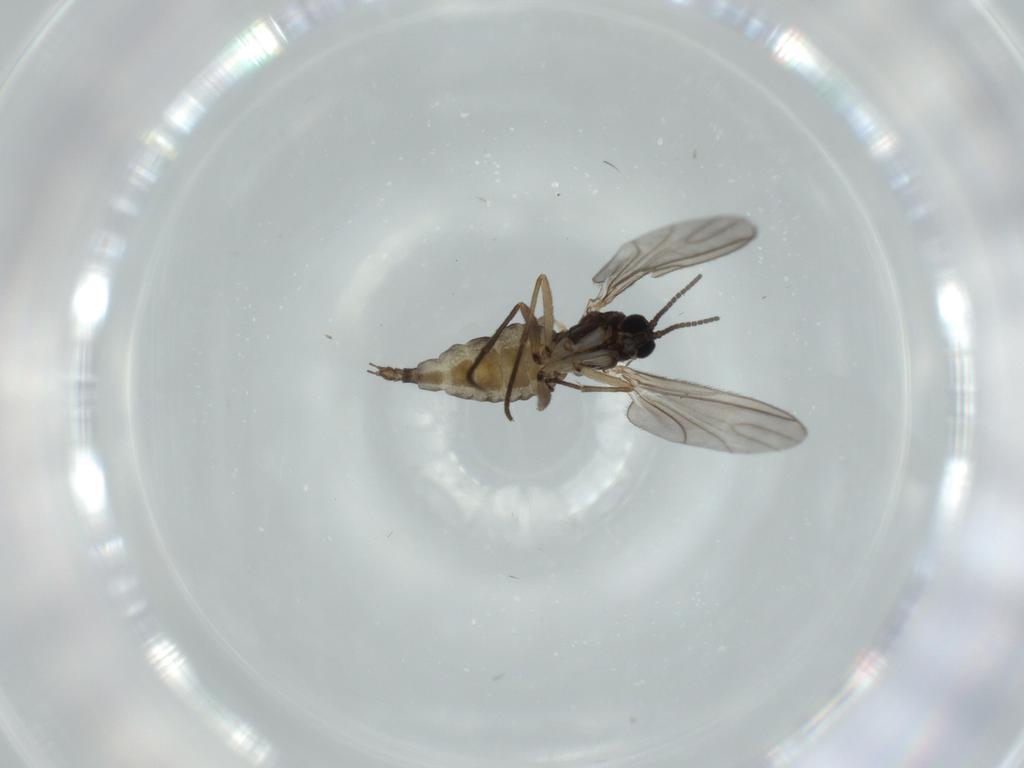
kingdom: Animalia
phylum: Arthropoda
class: Insecta
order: Diptera
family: Sciaridae
